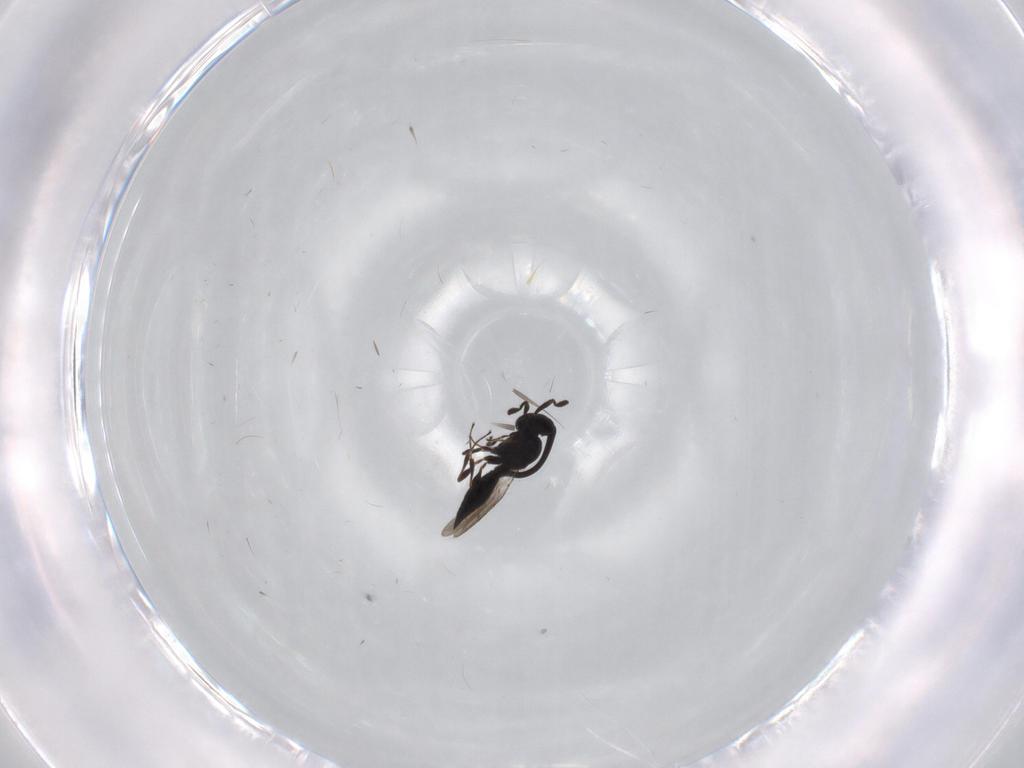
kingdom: Animalia
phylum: Arthropoda
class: Insecta
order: Hymenoptera
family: Platygastridae
